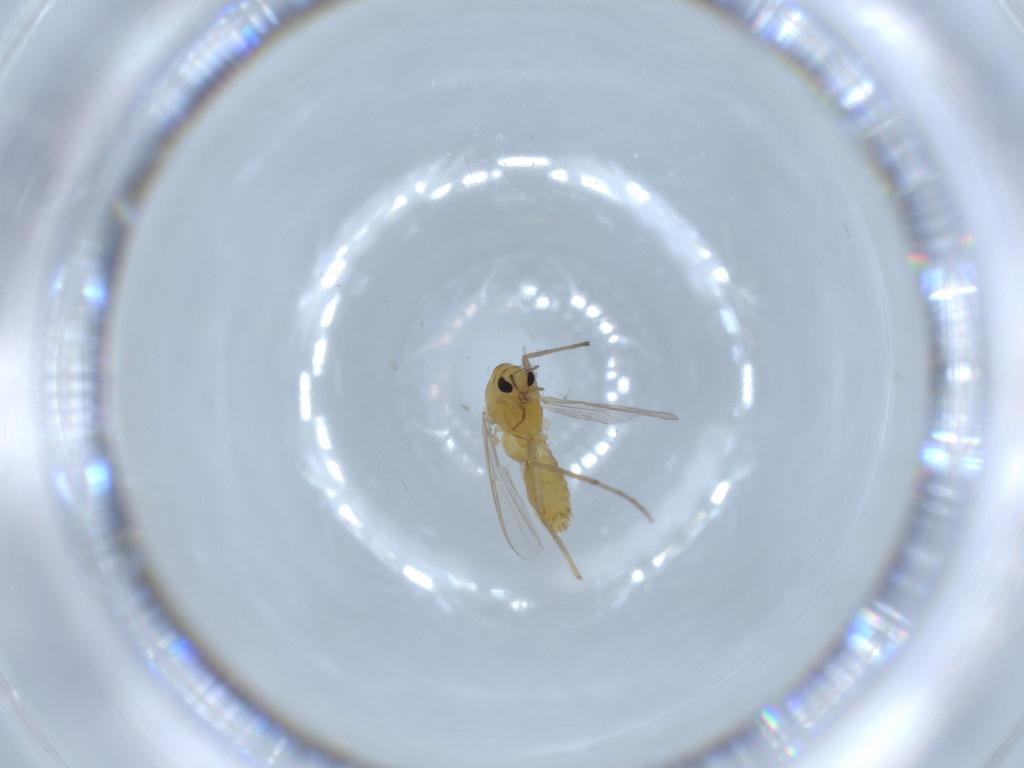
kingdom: Animalia
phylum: Arthropoda
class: Insecta
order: Diptera
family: Chironomidae
